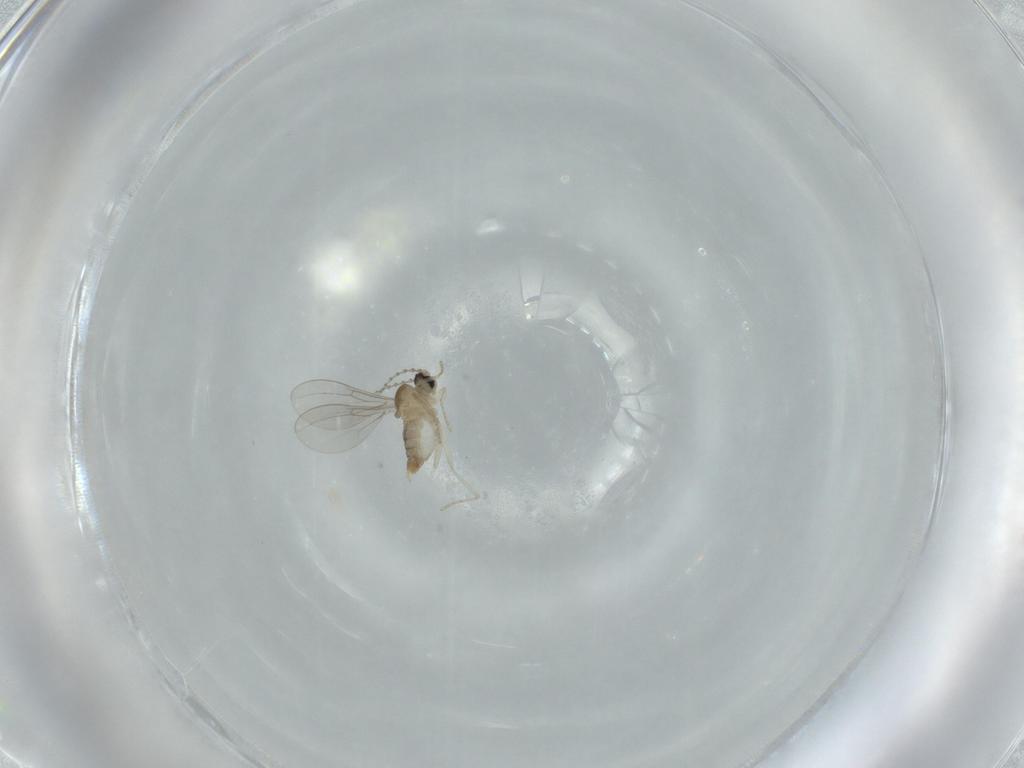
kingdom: Animalia
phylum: Arthropoda
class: Insecta
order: Diptera
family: Cecidomyiidae
